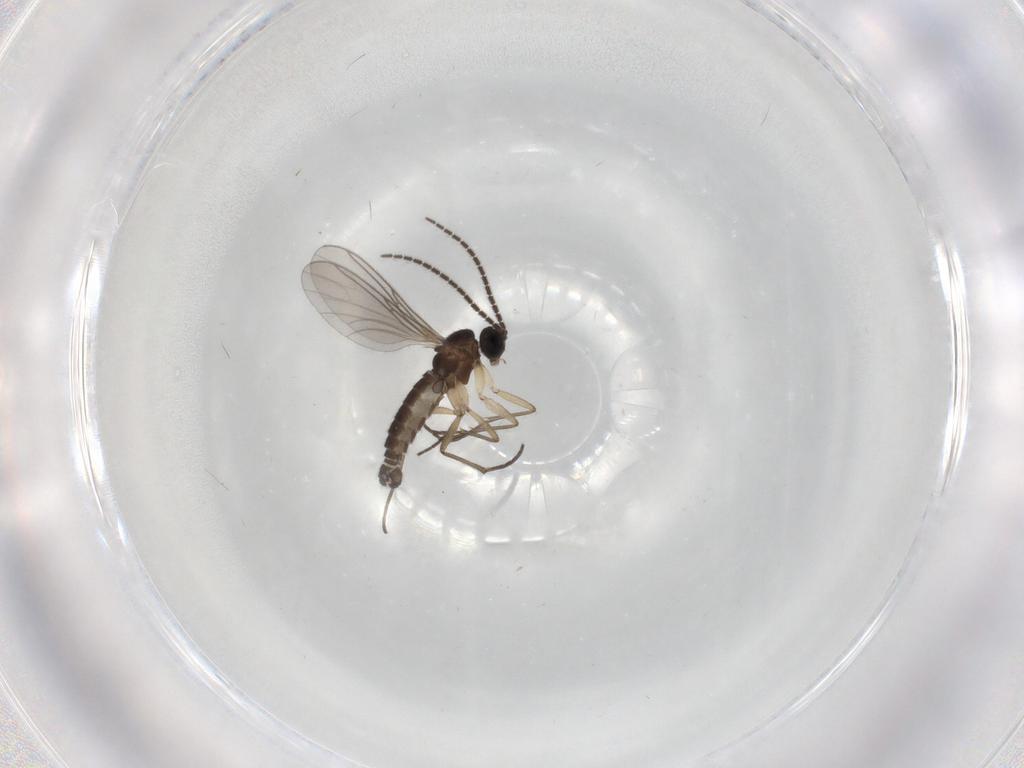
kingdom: Animalia
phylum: Arthropoda
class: Insecta
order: Diptera
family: Sciaridae
